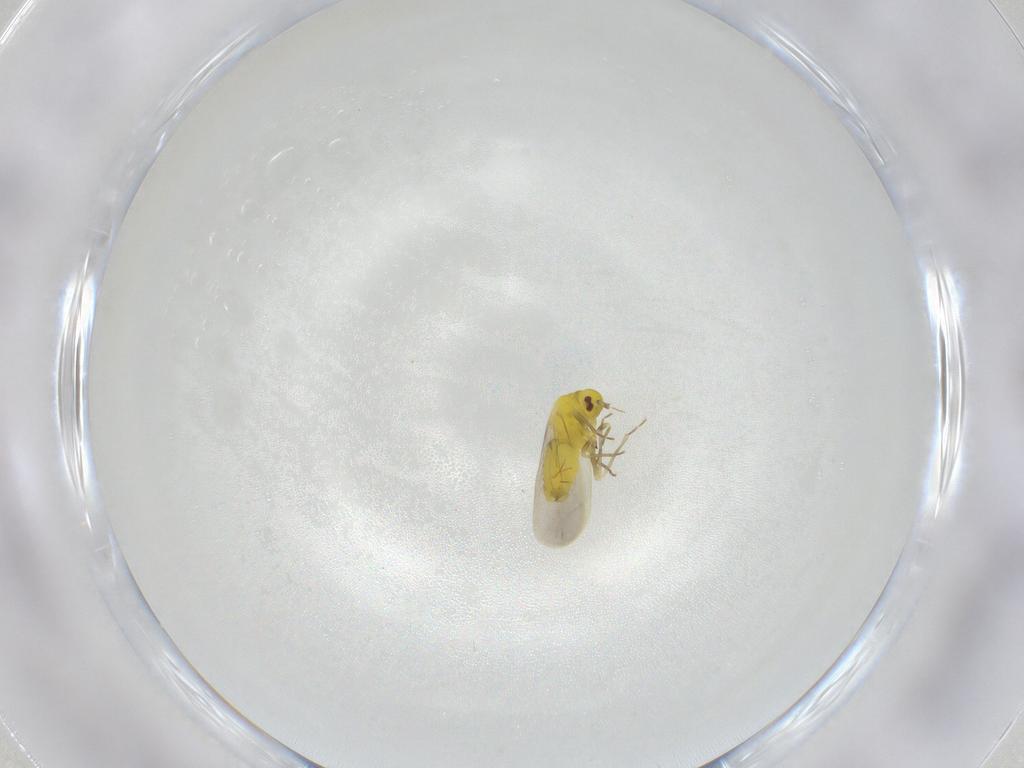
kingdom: Animalia
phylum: Arthropoda
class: Insecta
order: Hemiptera
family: Aleyrodidae
